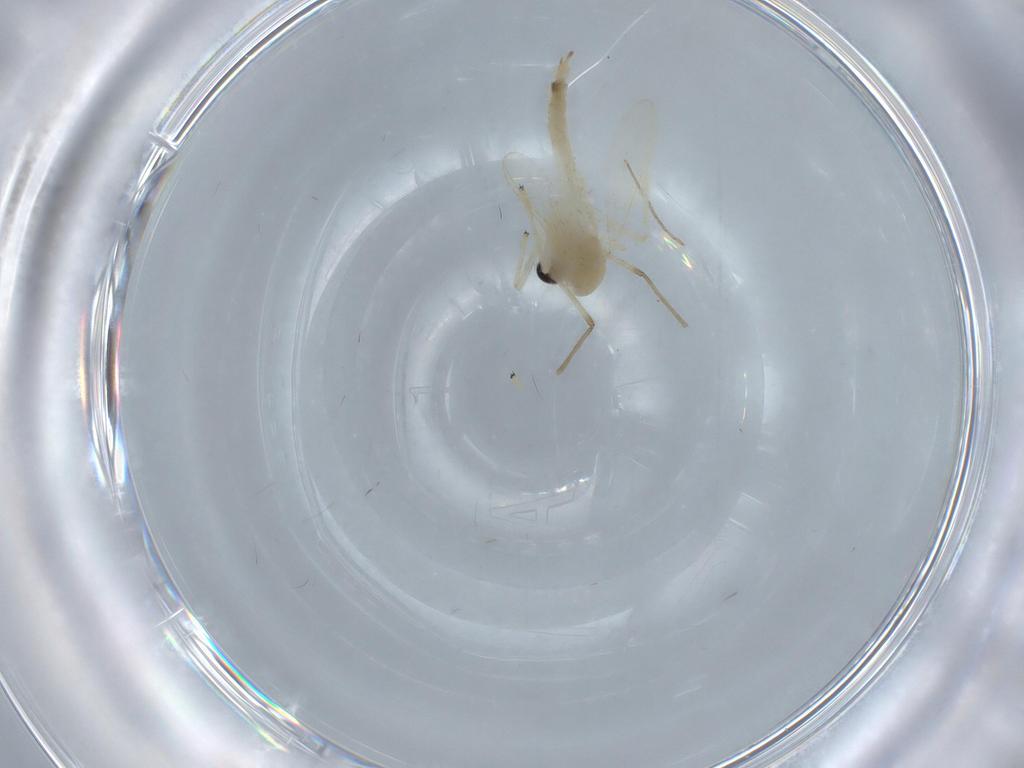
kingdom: Animalia
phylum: Arthropoda
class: Insecta
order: Diptera
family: Chironomidae
